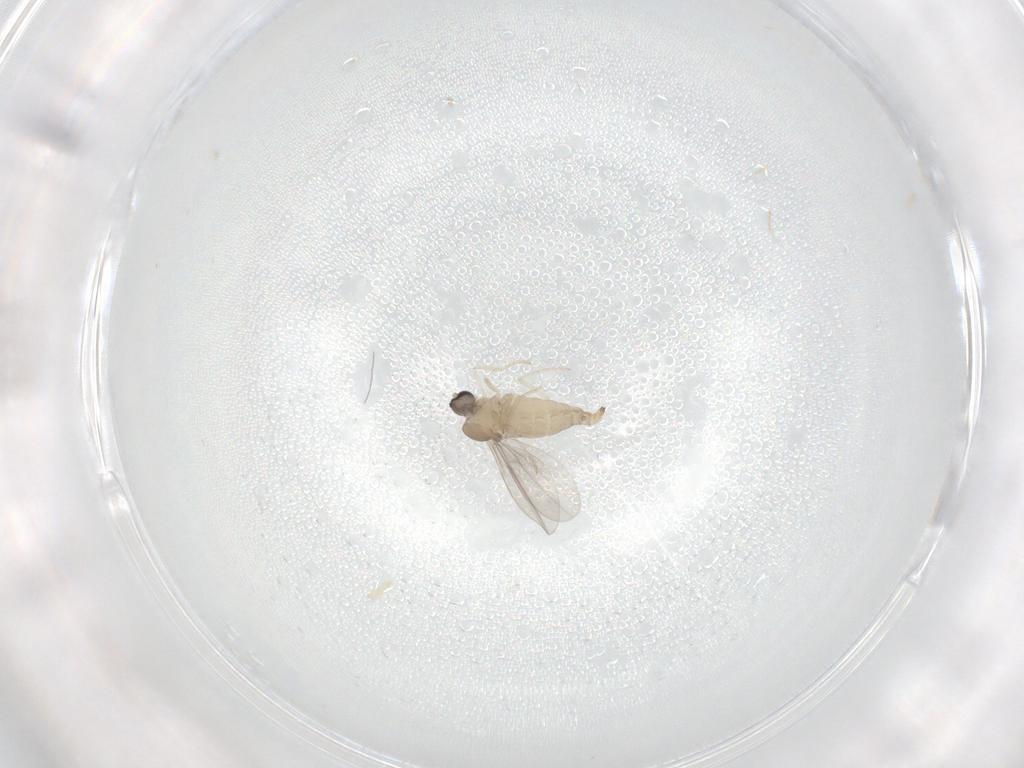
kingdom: Animalia
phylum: Arthropoda
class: Insecta
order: Diptera
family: Cecidomyiidae
